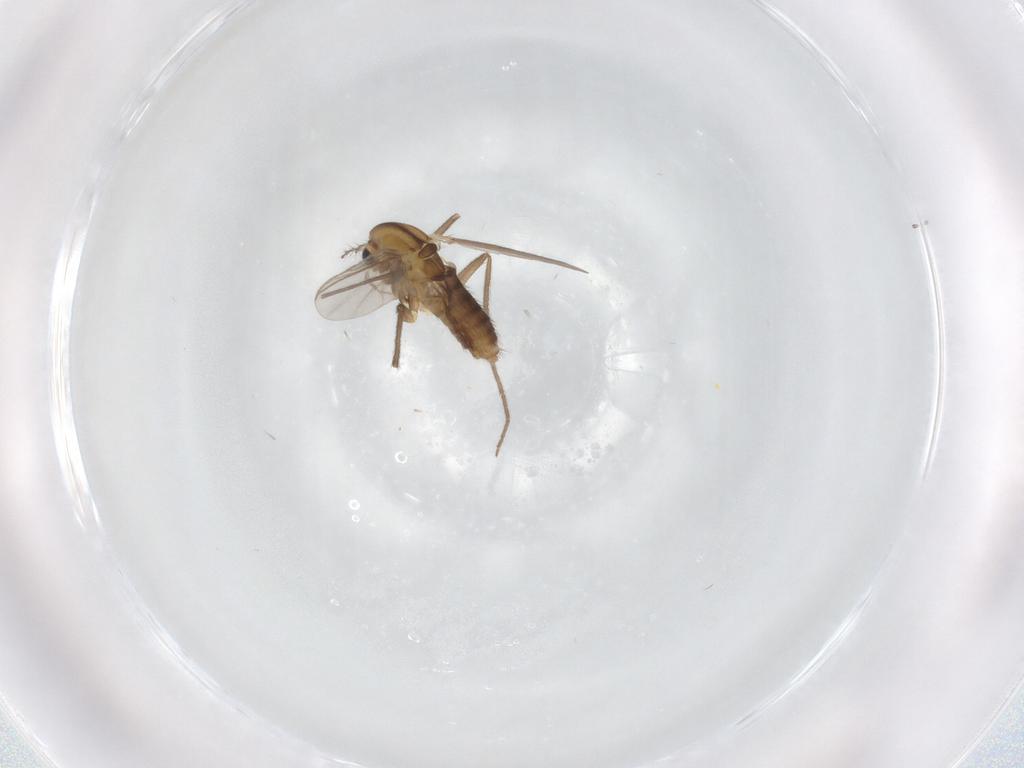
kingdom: Animalia
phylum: Arthropoda
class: Insecta
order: Diptera
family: Chironomidae
